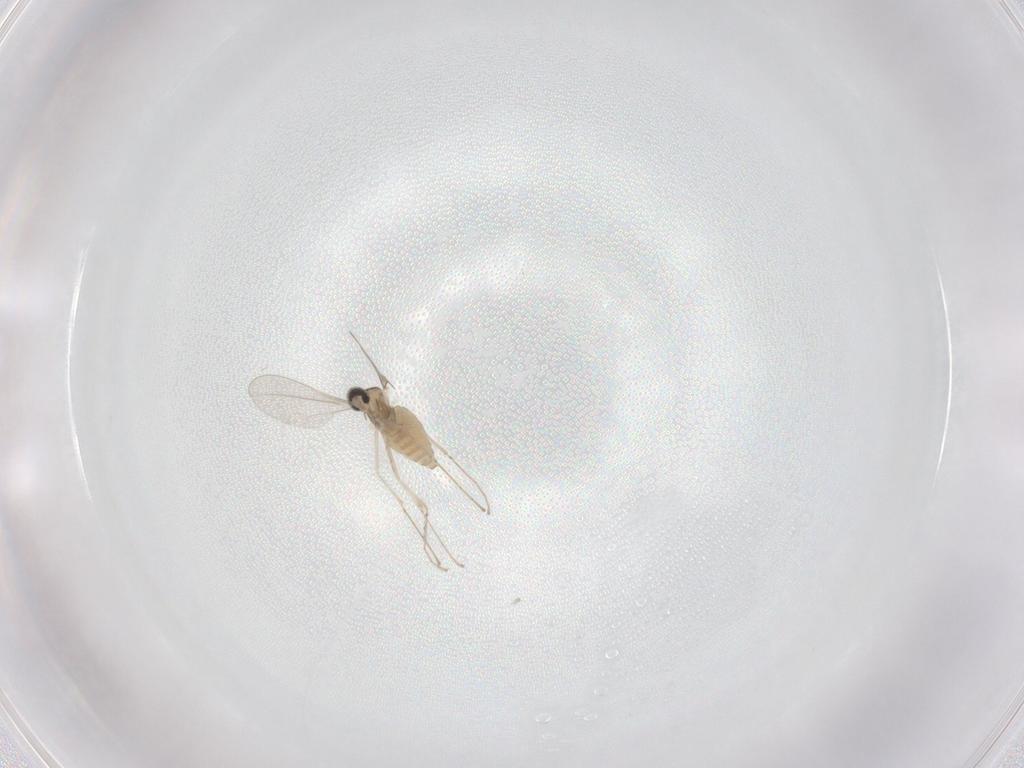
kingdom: Animalia
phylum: Arthropoda
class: Insecta
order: Diptera
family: Cecidomyiidae
